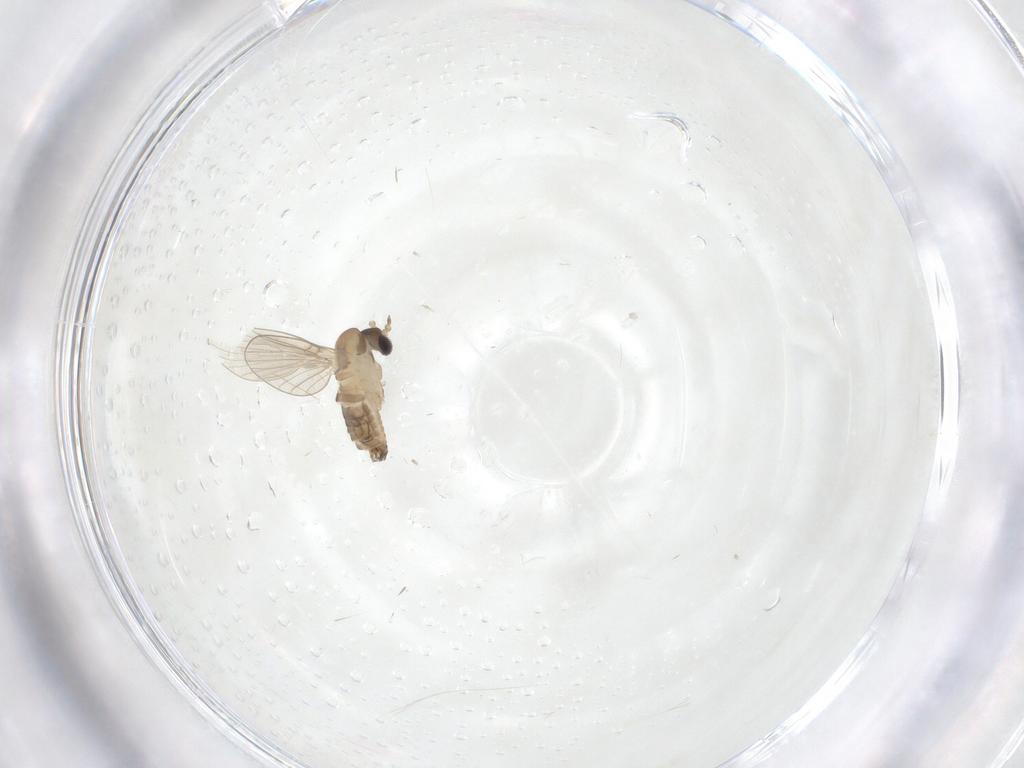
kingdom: Animalia
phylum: Arthropoda
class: Insecta
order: Diptera
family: Psychodidae
